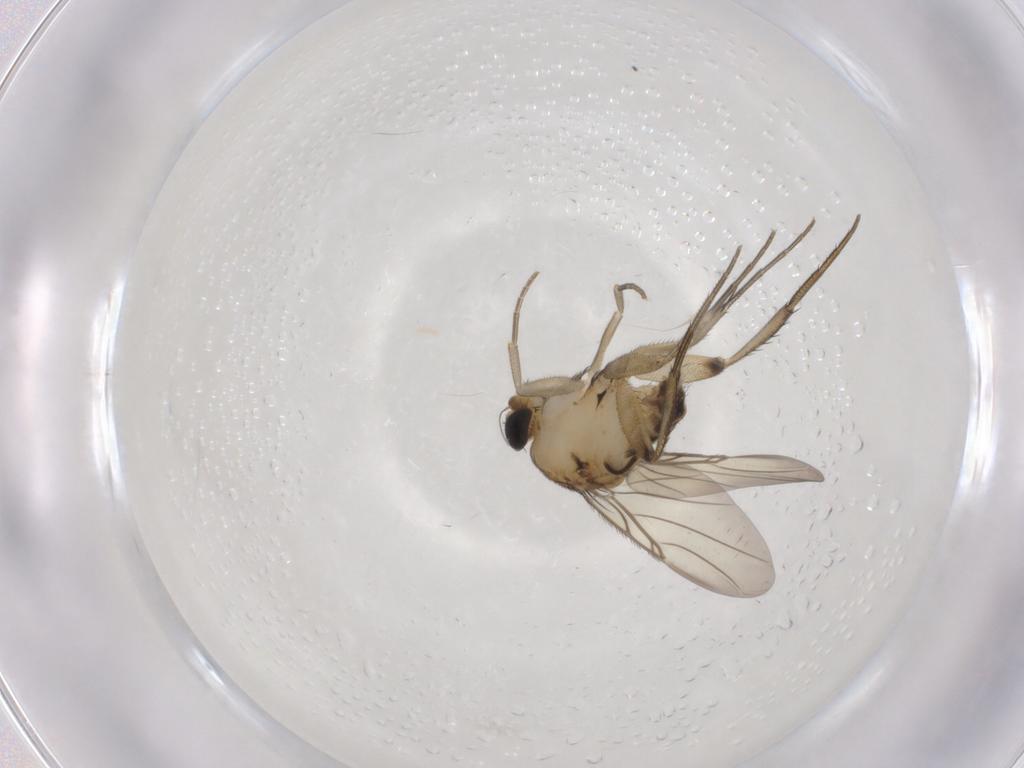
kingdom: Animalia
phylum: Arthropoda
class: Insecta
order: Diptera
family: Phoridae
